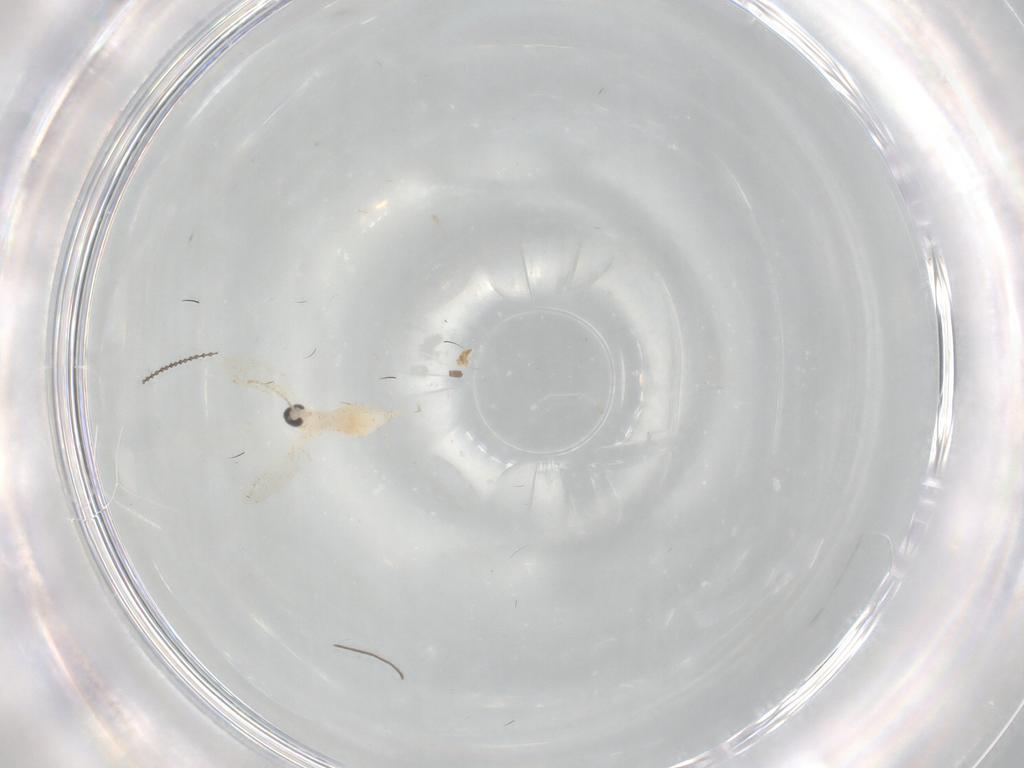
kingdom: Animalia
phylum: Arthropoda
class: Insecta
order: Diptera
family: Cecidomyiidae
